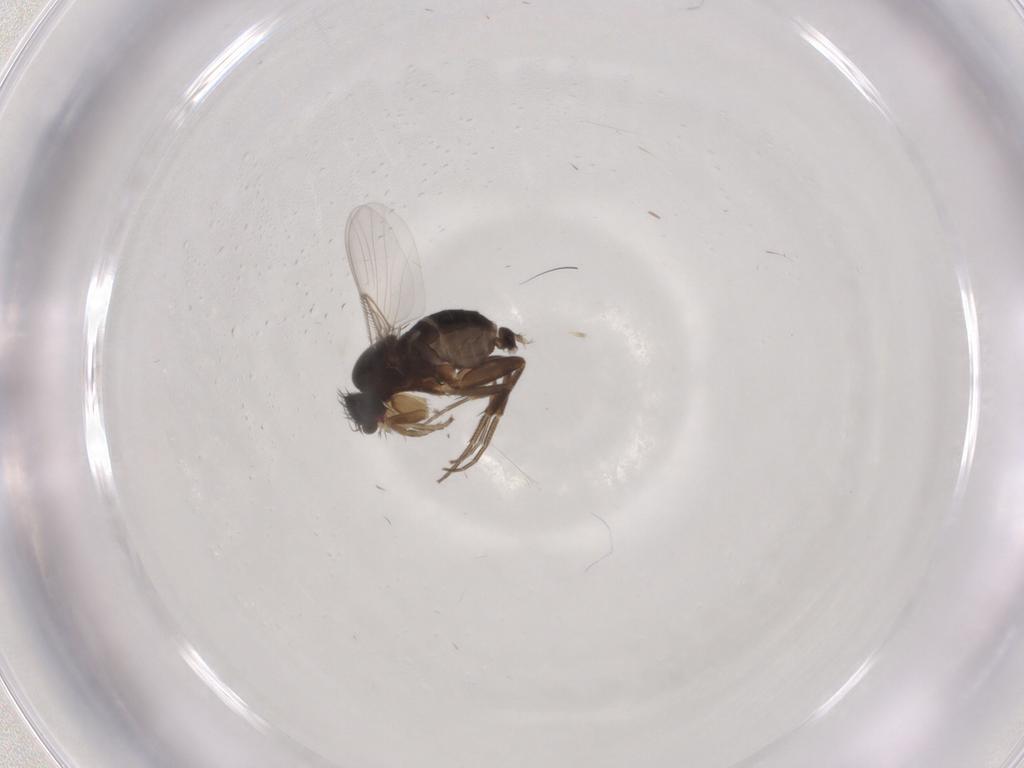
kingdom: Animalia
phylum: Arthropoda
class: Insecta
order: Diptera
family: Phoridae
